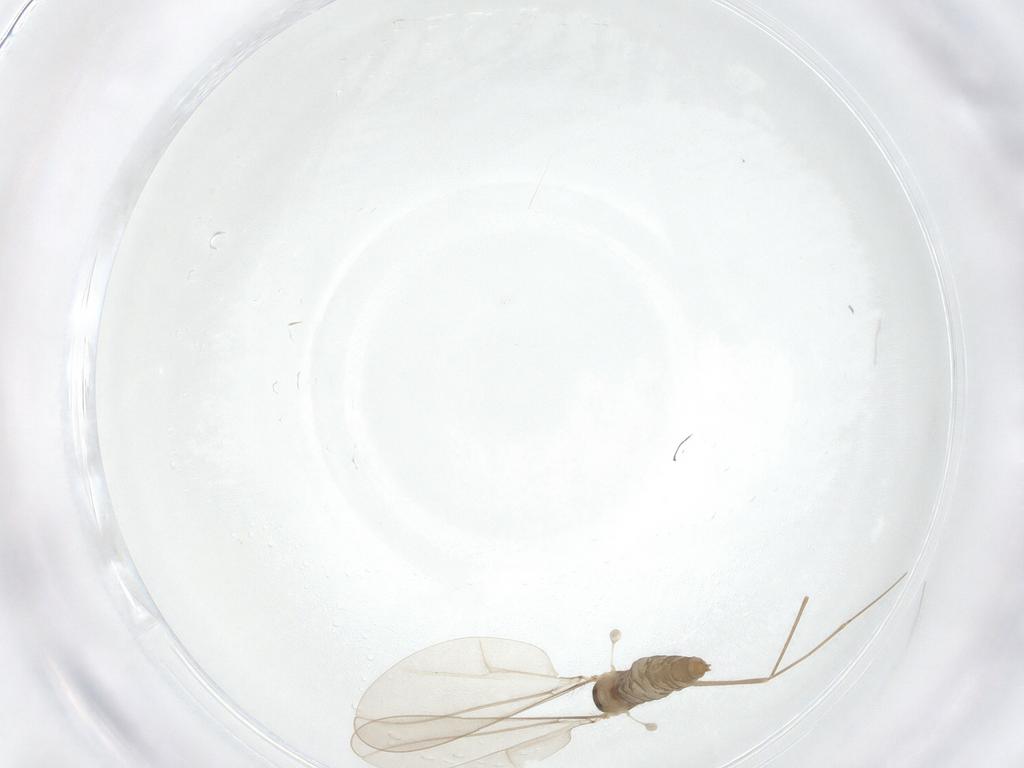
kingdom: Animalia
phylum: Arthropoda
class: Insecta
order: Diptera
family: Cecidomyiidae
